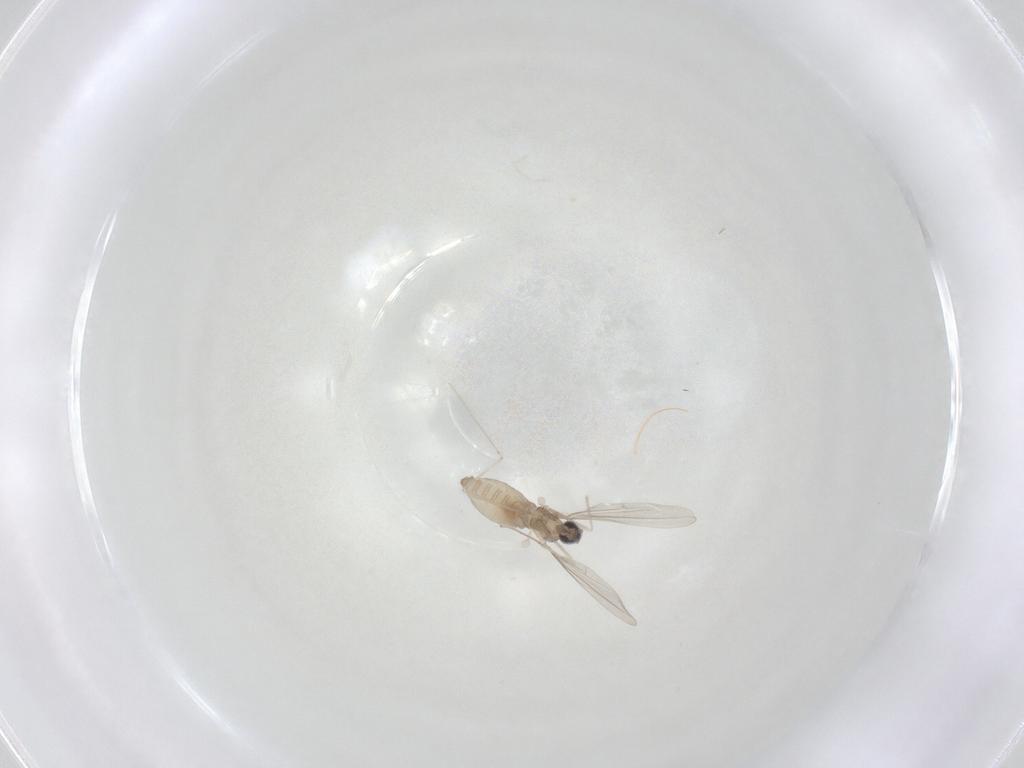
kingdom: Animalia
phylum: Arthropoda
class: Insecta
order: Diptera
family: Cecidomyiidae
